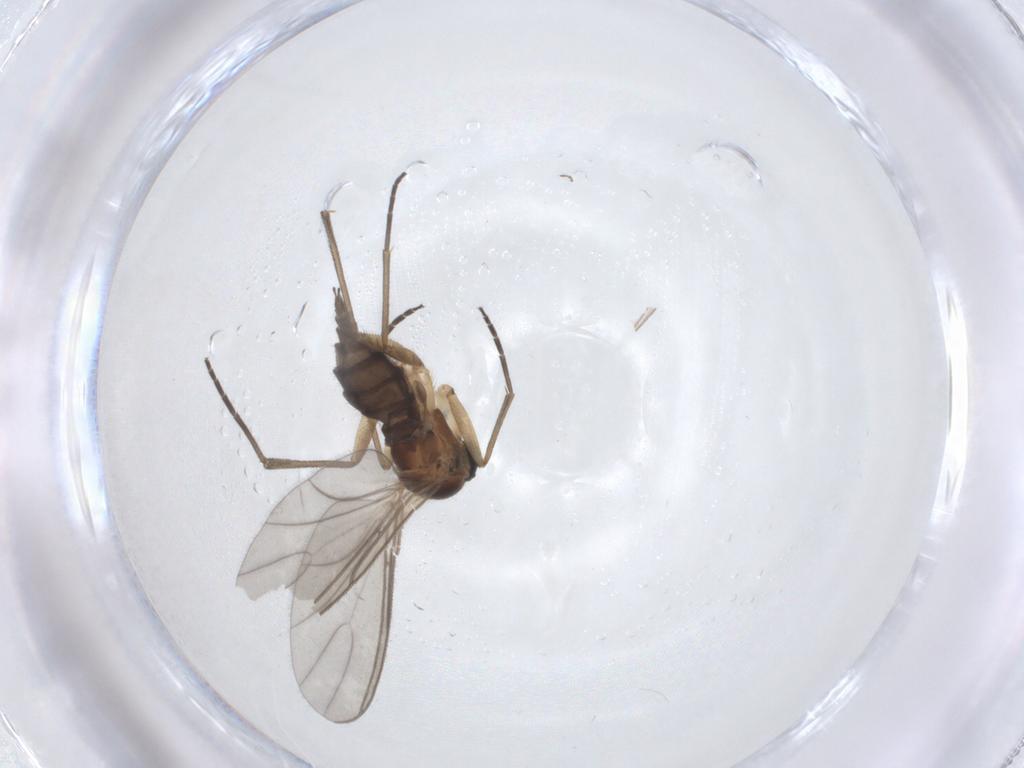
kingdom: Animalia
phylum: Arthropoda
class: Insecta
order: Diptera
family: Sciaridae
